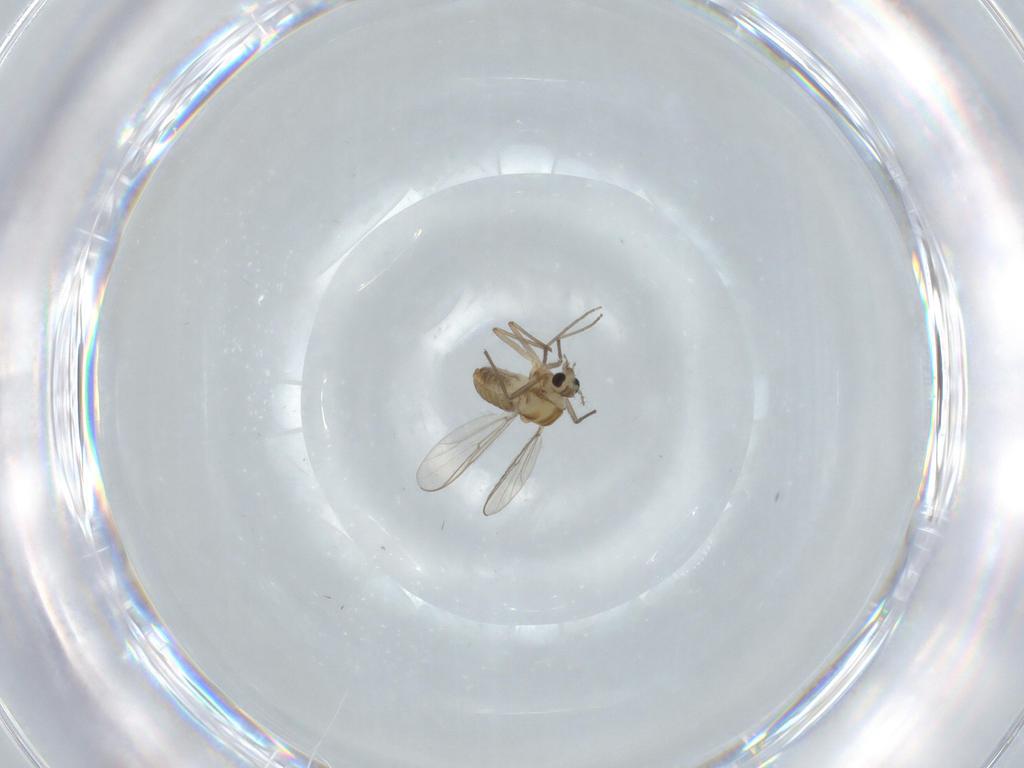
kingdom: Animalia
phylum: Arthropoda
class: Insecta
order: Diptera
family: Chironomidae
